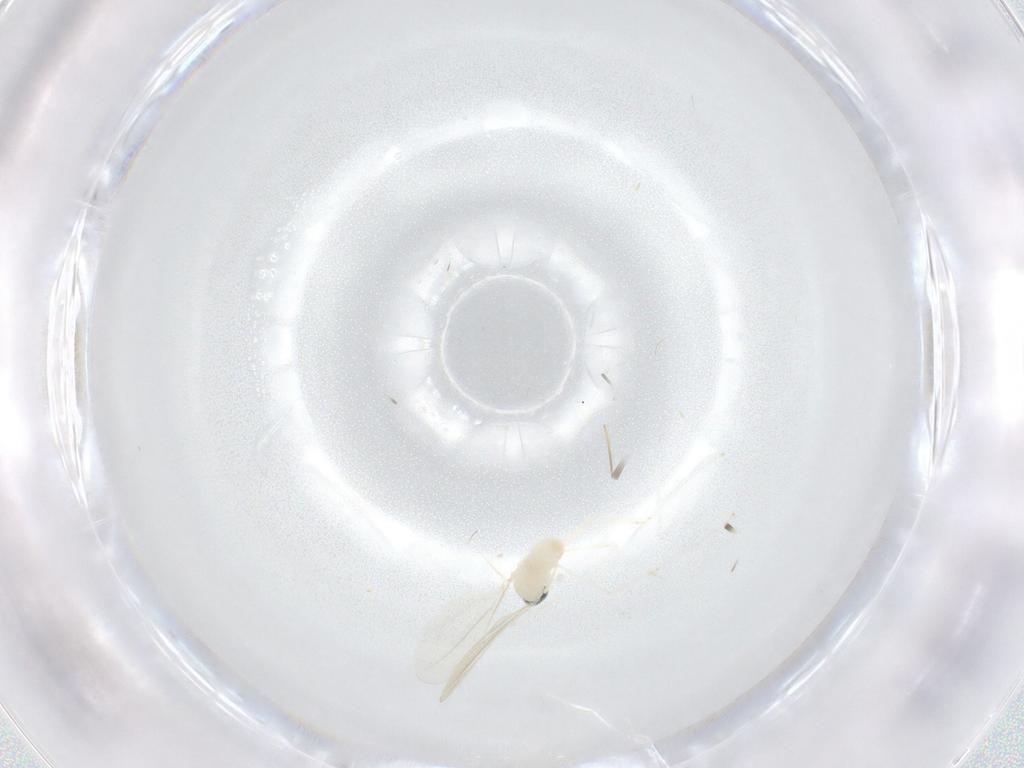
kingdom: Animalia
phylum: Arthropoda
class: Insecta
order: Diptera
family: Cecidomyiidae
